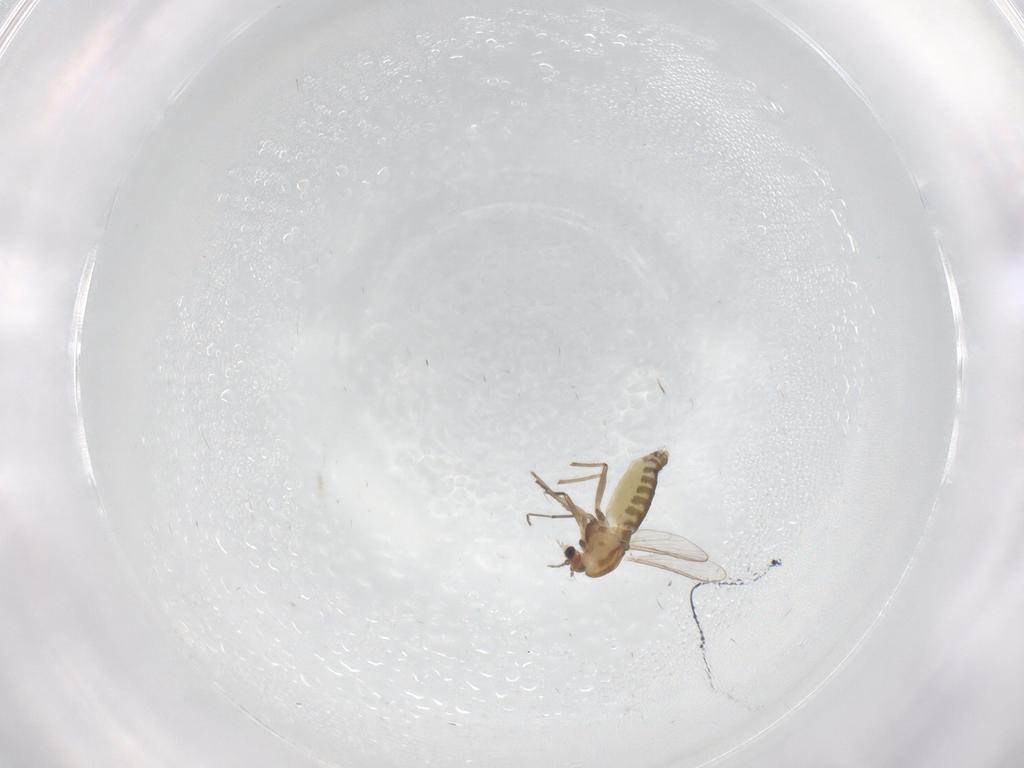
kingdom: Animalia
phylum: Arthropoda
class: Insecta
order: Diptera
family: Chironomidae
